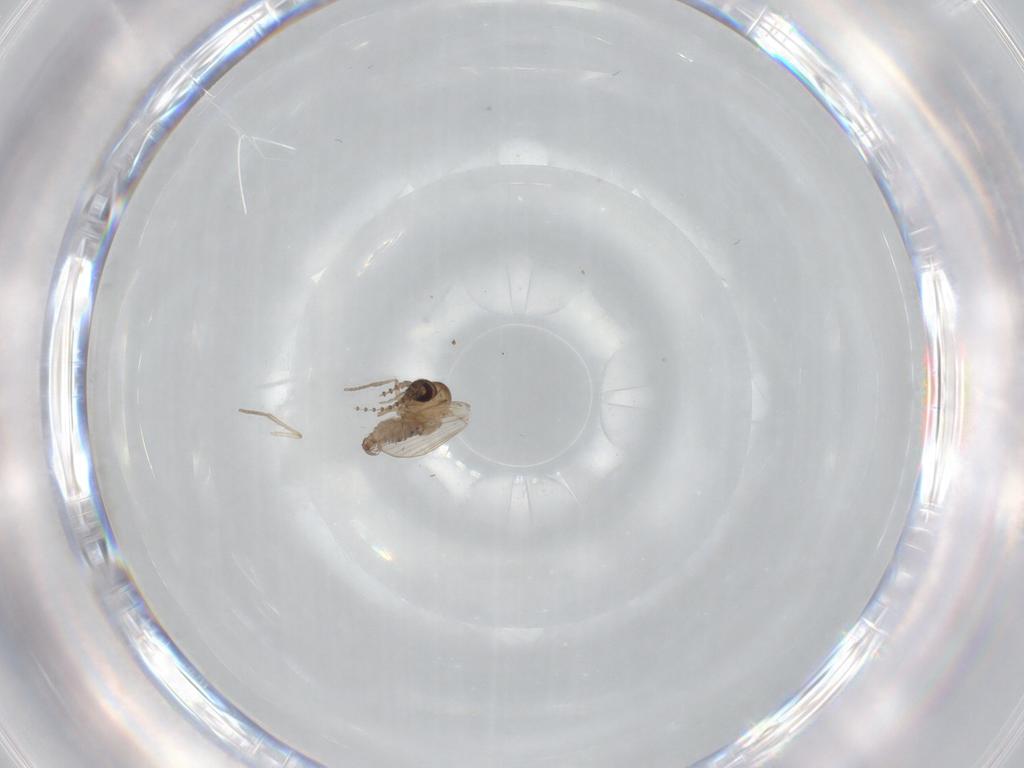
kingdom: Animalia
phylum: Arthropoda
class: Insecta
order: Diptera
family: Psychodidae
